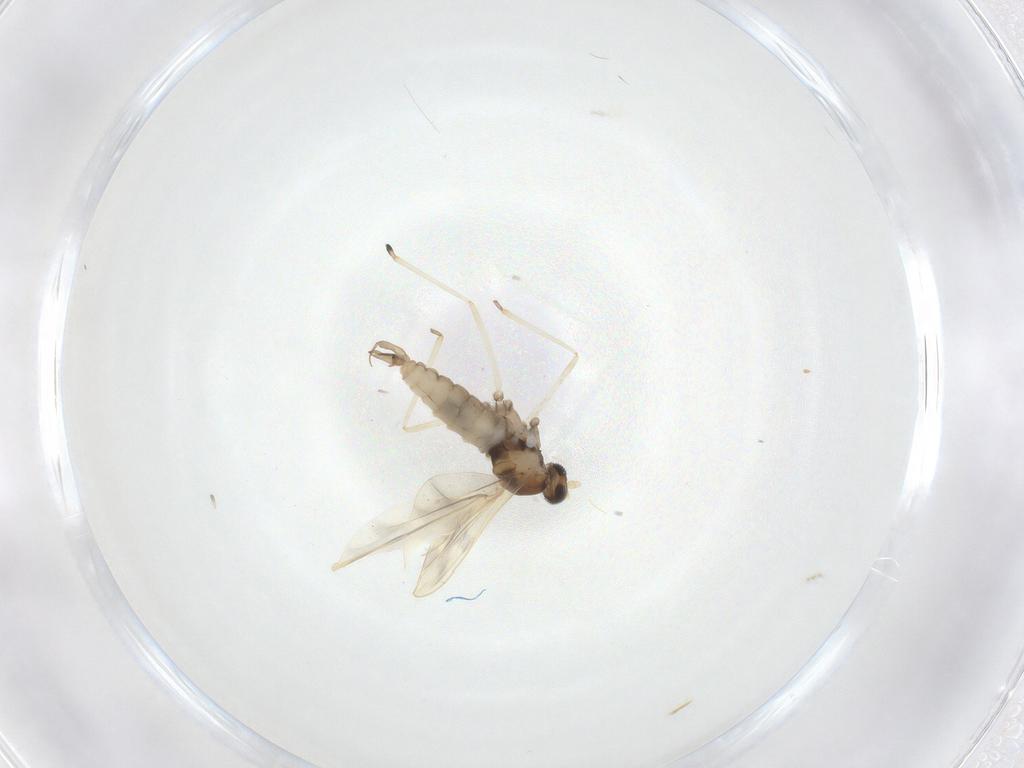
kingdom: Animalia
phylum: Arthropoda
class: Insecta
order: Diptera
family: Cecidomyiidae
